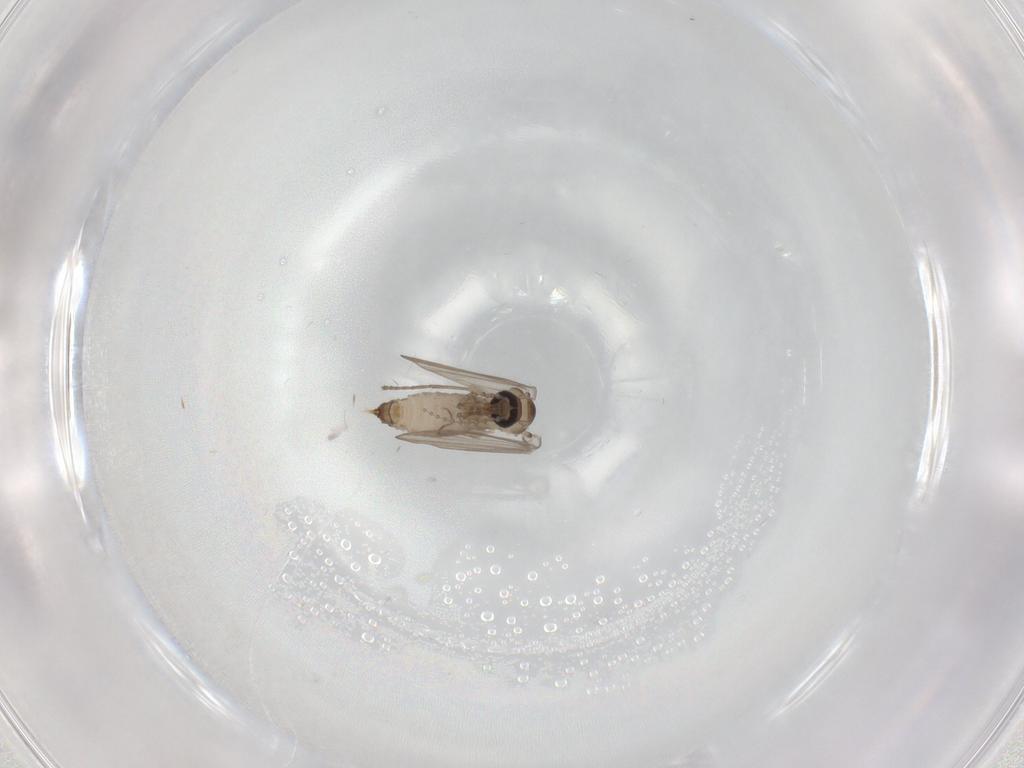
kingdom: Animalia
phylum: Arthropoda
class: Insecta
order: Diptera
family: Psychodidae
